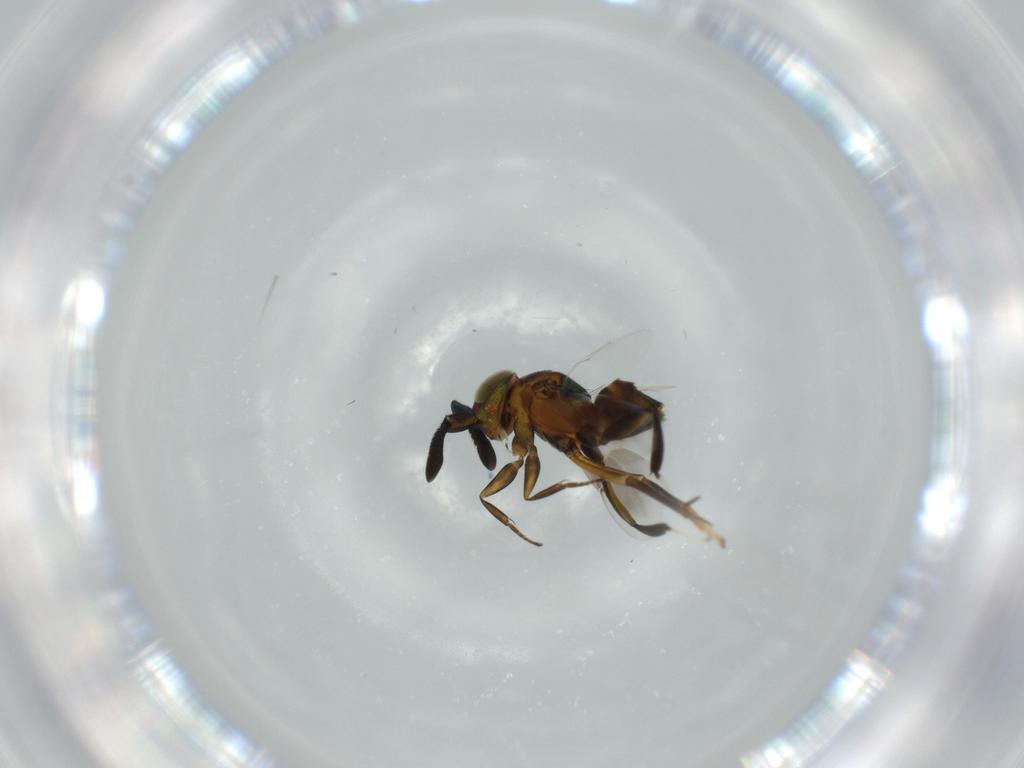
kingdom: Animalia
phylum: Arthropoda
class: Insecta
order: Hymenoptera
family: Encyrtidae
